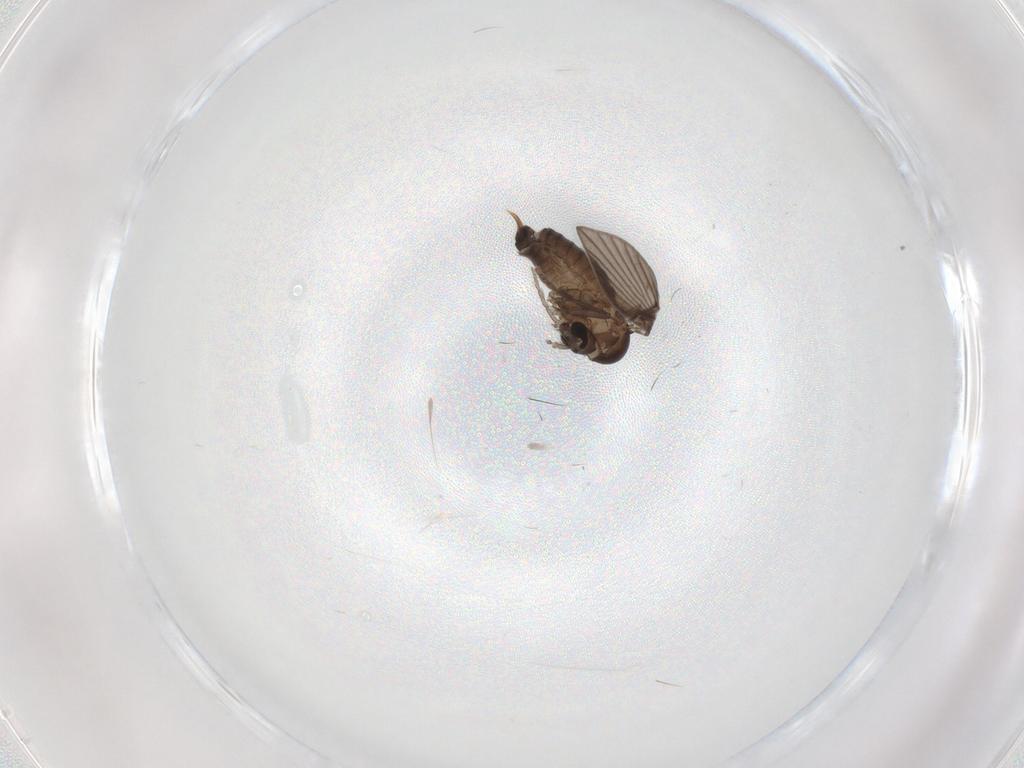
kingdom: Animalia
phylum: Arthropoda
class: Insecta
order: Diptera
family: Psychodidae
